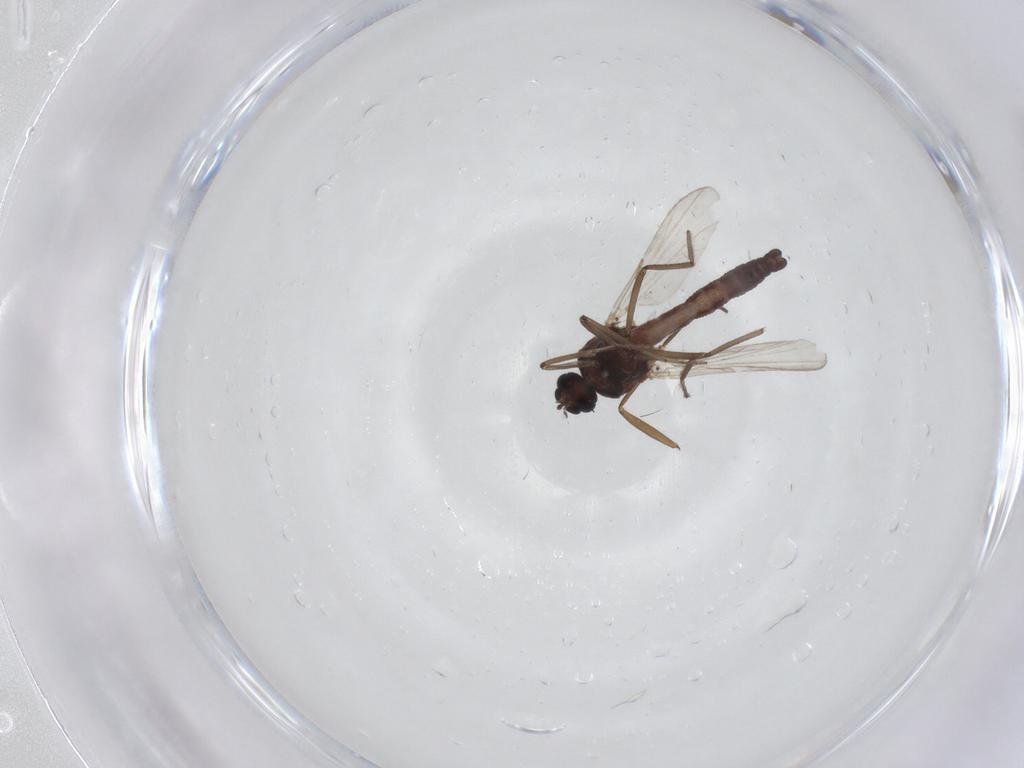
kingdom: Animalia
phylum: Arthropoda
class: Insecta
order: Diptera
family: Ceratopogonidae
